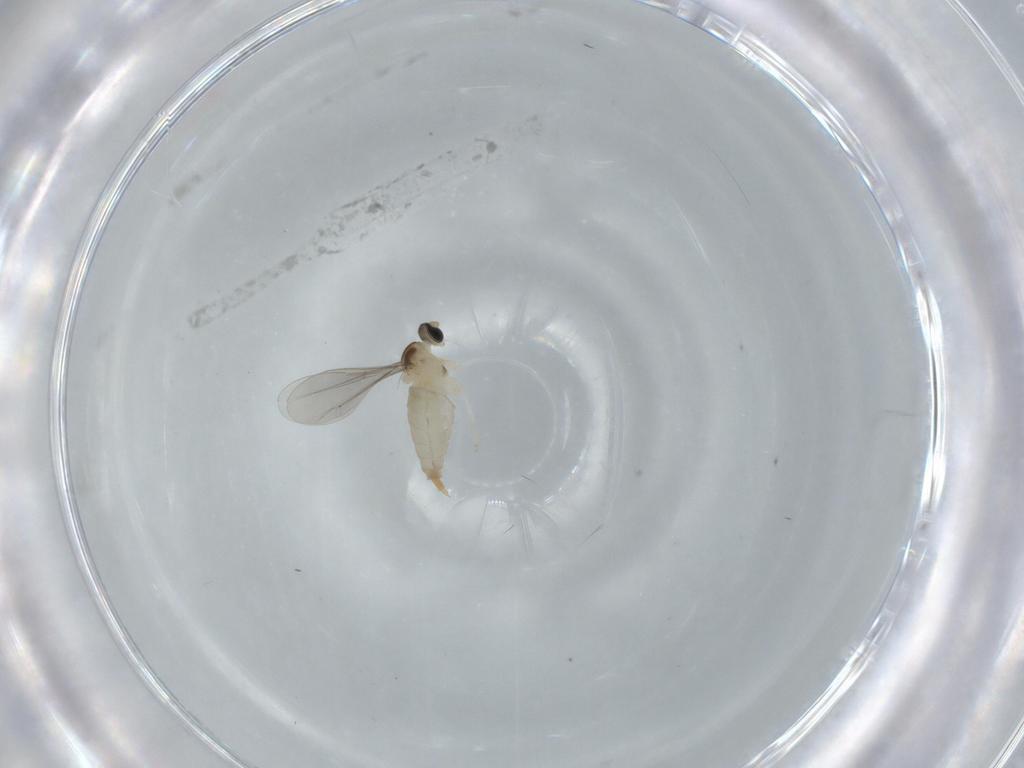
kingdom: Animalia
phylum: Arthropoda
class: Insecta
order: Diptera
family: Chironomidae
